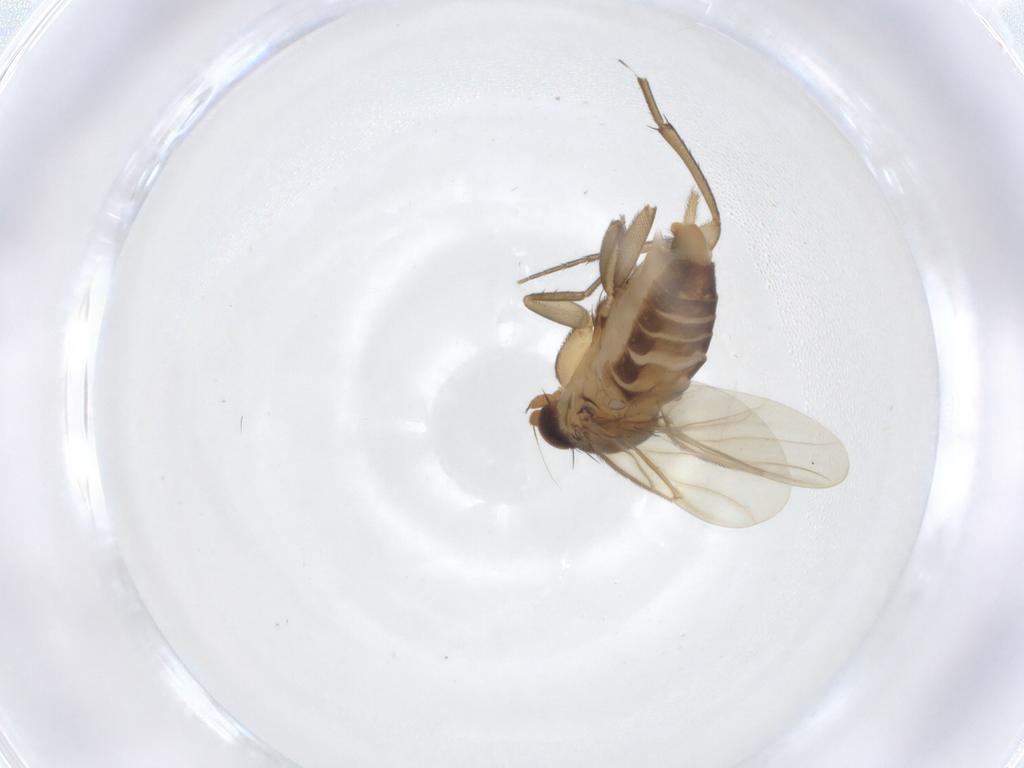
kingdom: Animalia
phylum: Arthropoda
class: Insecta
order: Diptera
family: Phoridae
